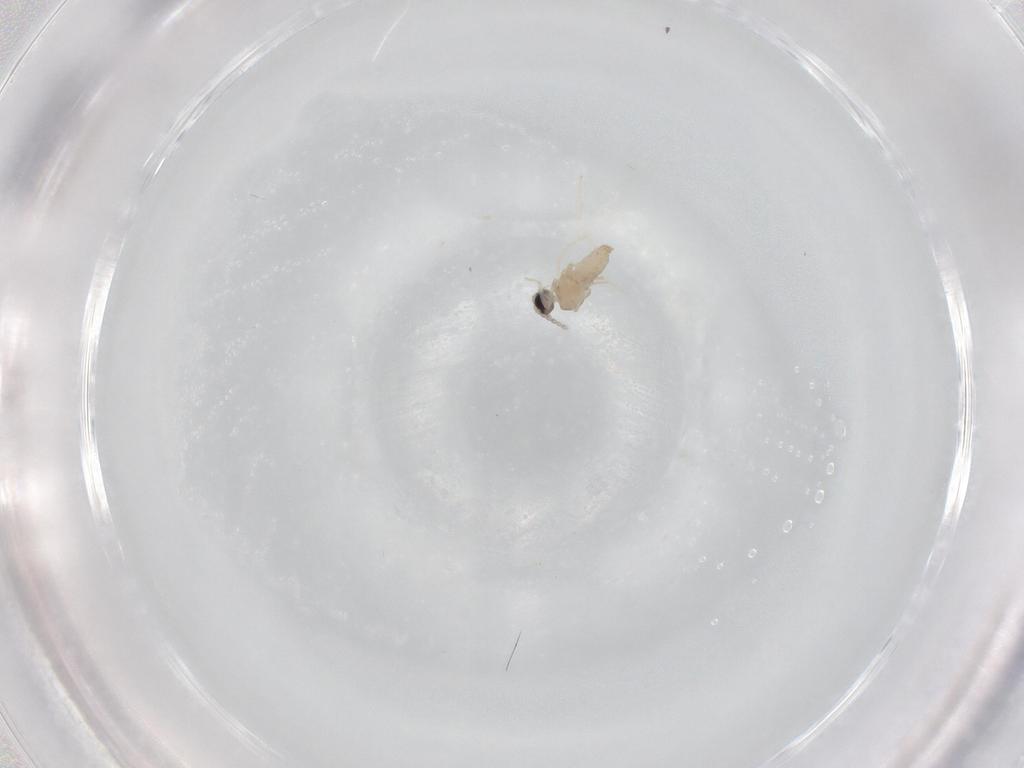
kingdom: Animalia
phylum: Arthropoda
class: Insecta
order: Diptera
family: Cecidomyiidae
